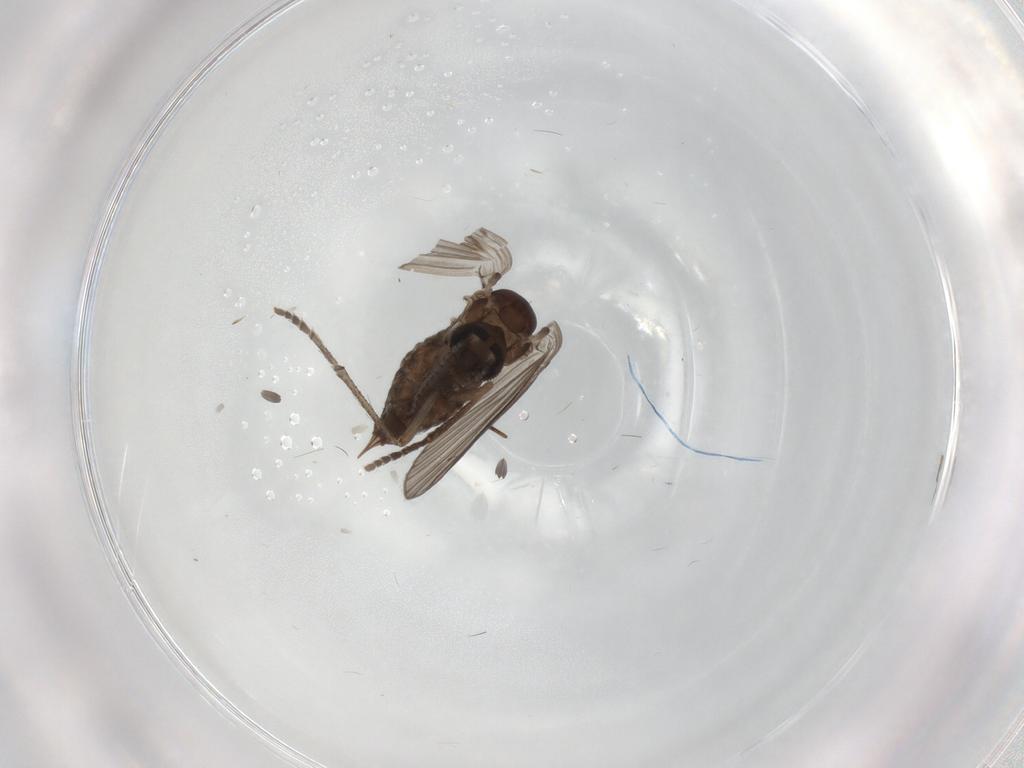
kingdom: Animalia
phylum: Arthropoda
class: Insecta
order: Diptera
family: Psychodidae
